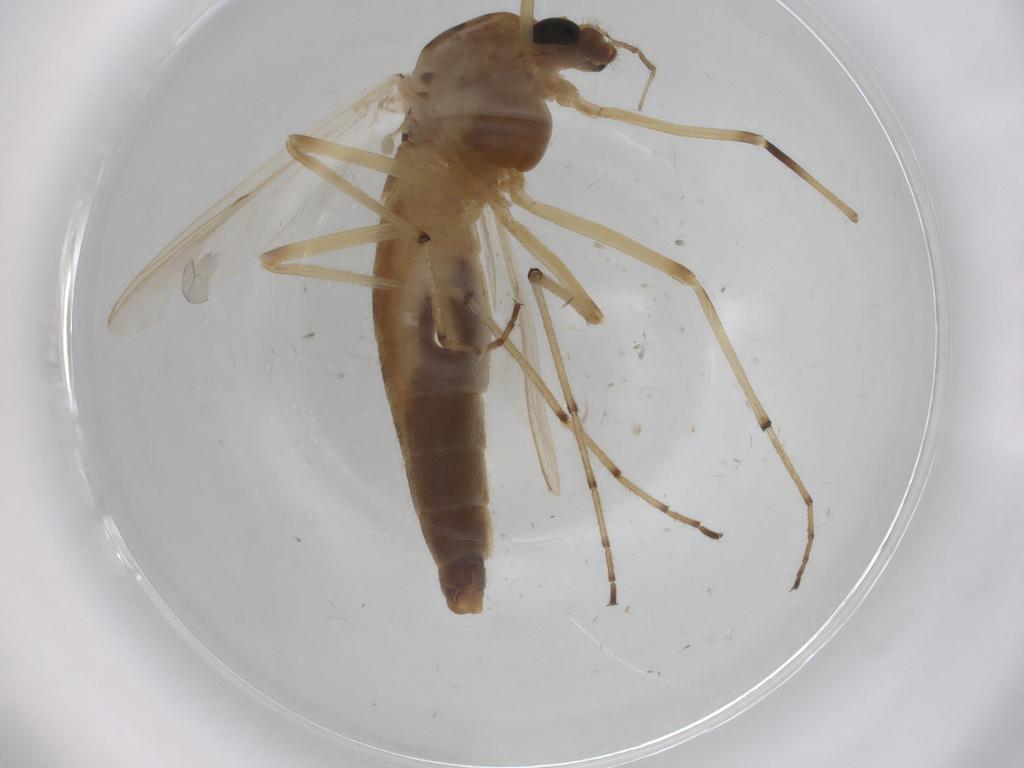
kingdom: Animalia
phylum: Arthropoda
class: Insecta
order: Diptera
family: Chironomidae
